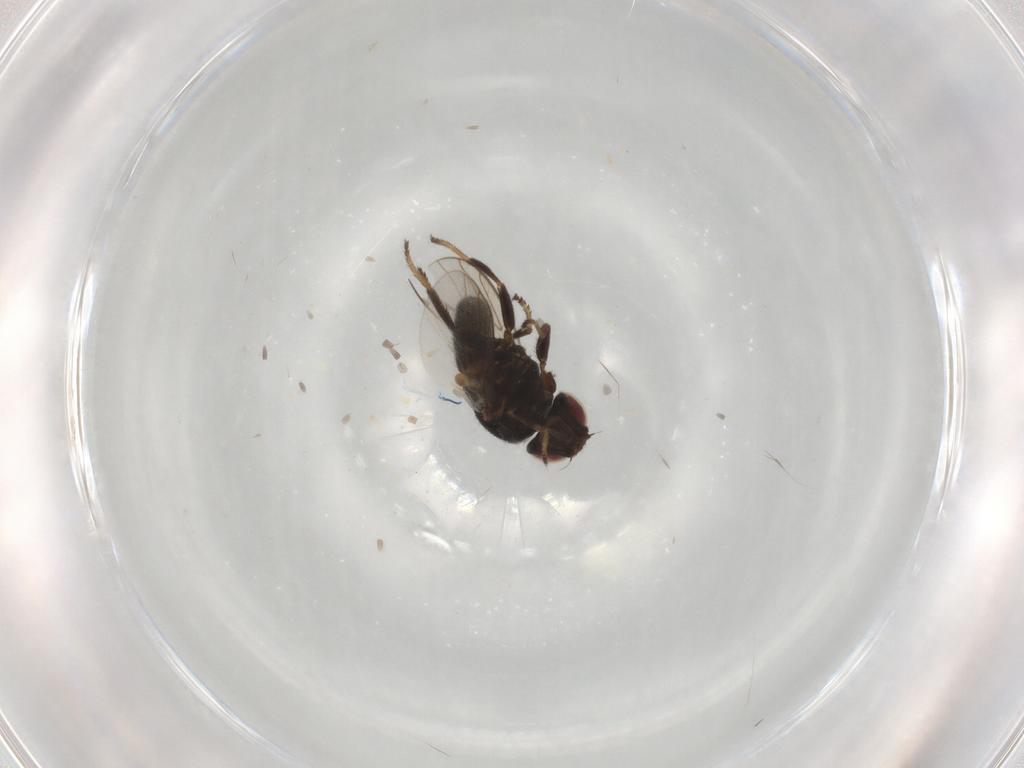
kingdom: Animalia
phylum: Arthropoda
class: Insecta
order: Diptera
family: Chloropidae
